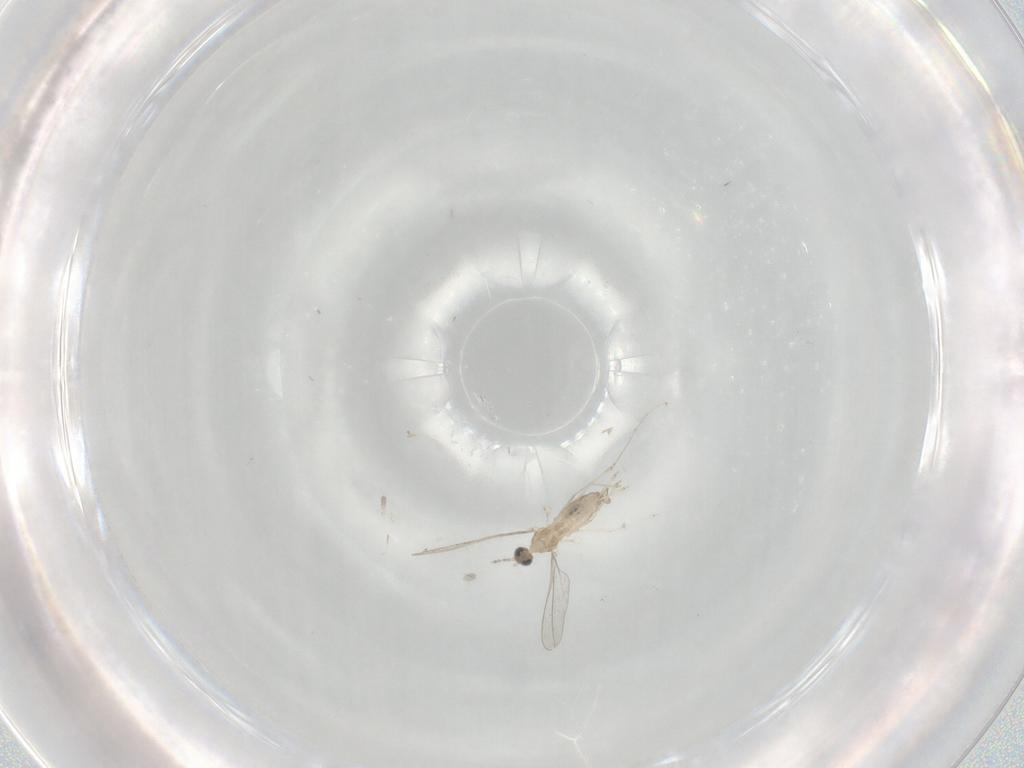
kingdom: Animalia
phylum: Arthropoda
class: Insecta
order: Diptera
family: Cecidomyiidae
